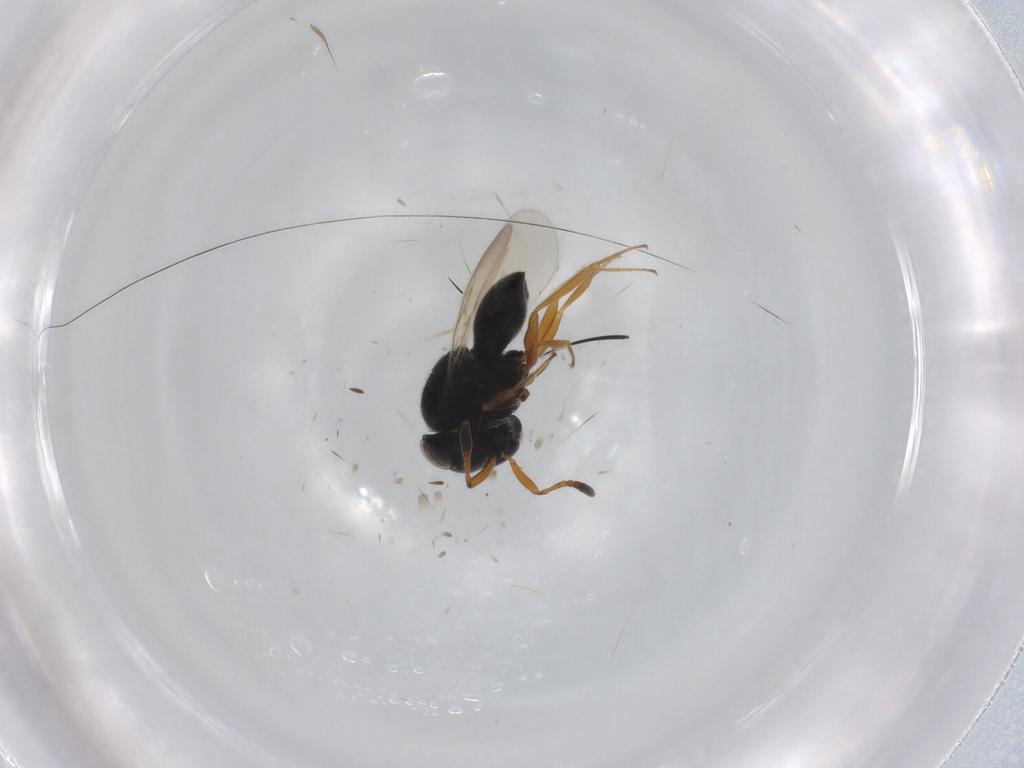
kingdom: Animalia
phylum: Arthropoda
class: Insecta
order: Hymenoptera
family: Scelionidae
